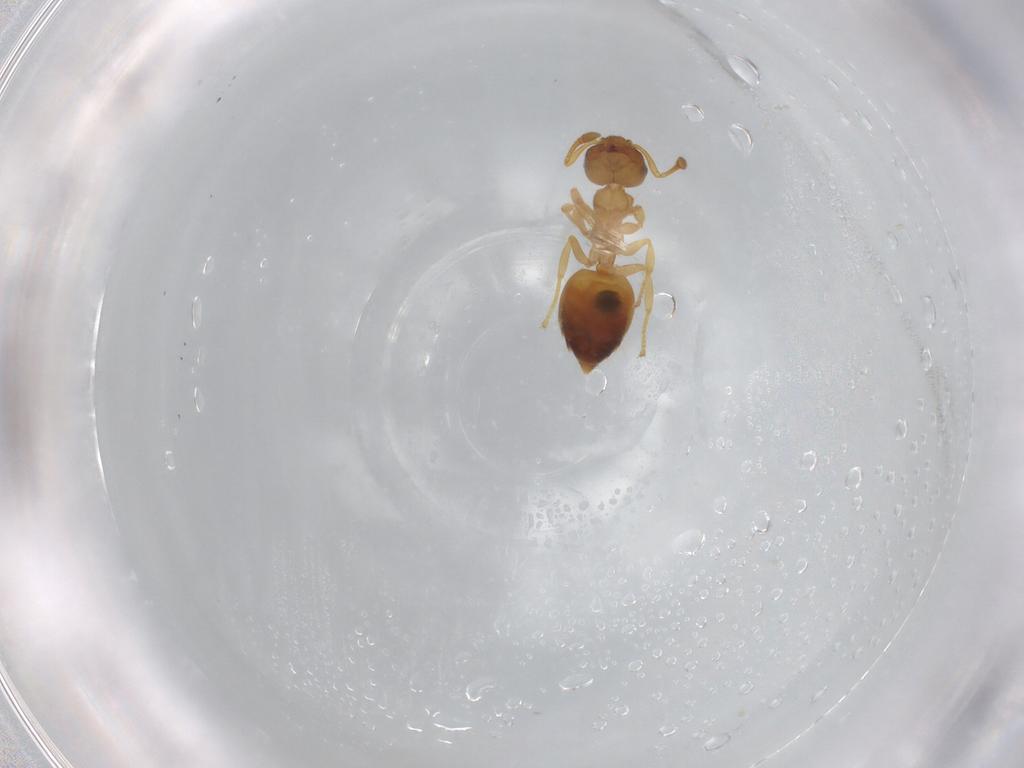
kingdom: Animalia
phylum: Arthropoda
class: Insecta
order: Hymenoptera
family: Formicidae
